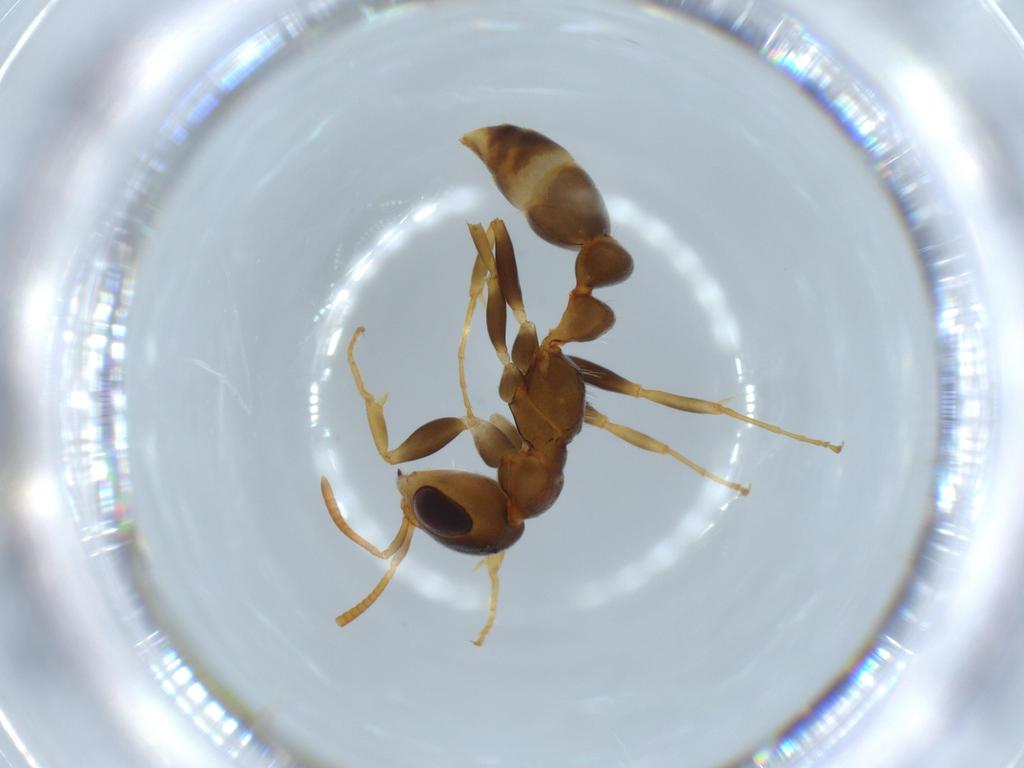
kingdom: Animalia
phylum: Arthropoda
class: Insecta
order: Hymenoptera
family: Formicidae
